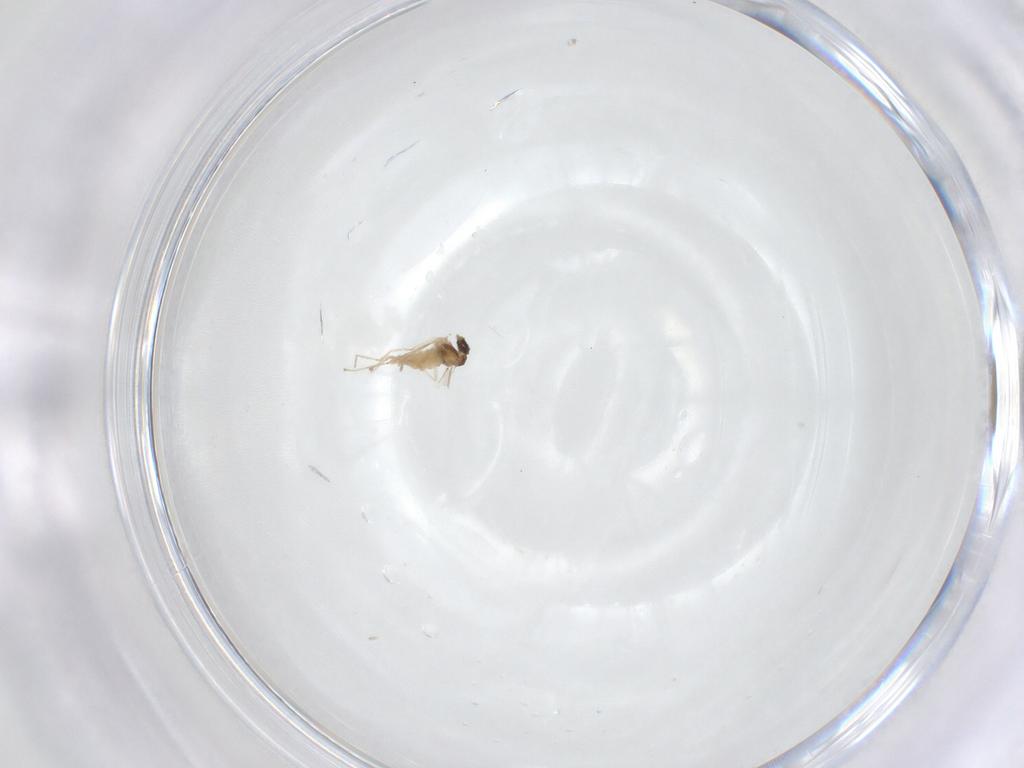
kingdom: Animalia
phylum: Arthropoda
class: Insecta
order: Diptera
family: Cecidomyiidae
